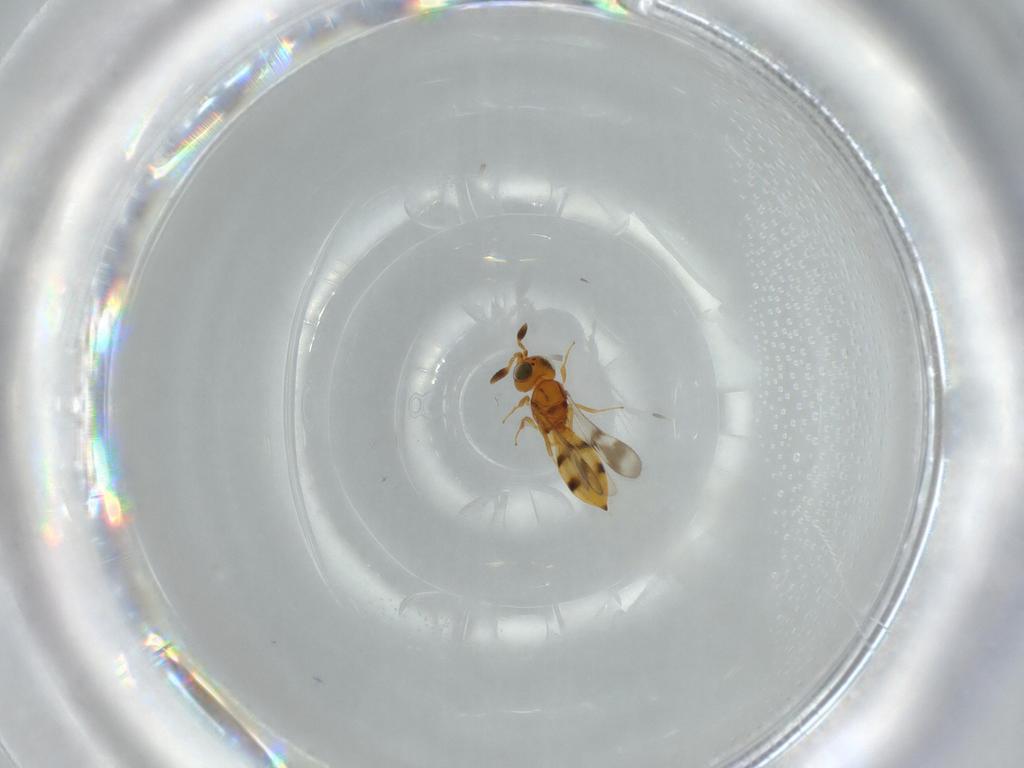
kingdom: Animalia
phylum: Arthropoda
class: Insecta
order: Hymenoptera
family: Scelionidae
